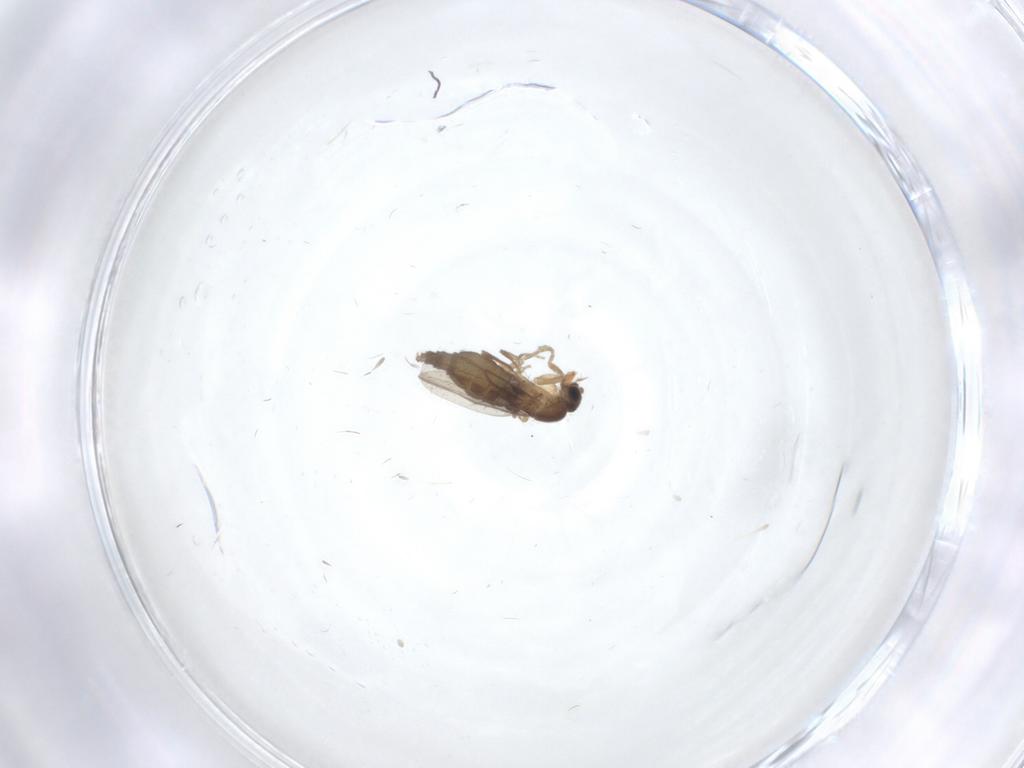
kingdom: Animalia
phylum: Arthropoda
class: Insecta
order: Diptera
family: Phoridae
